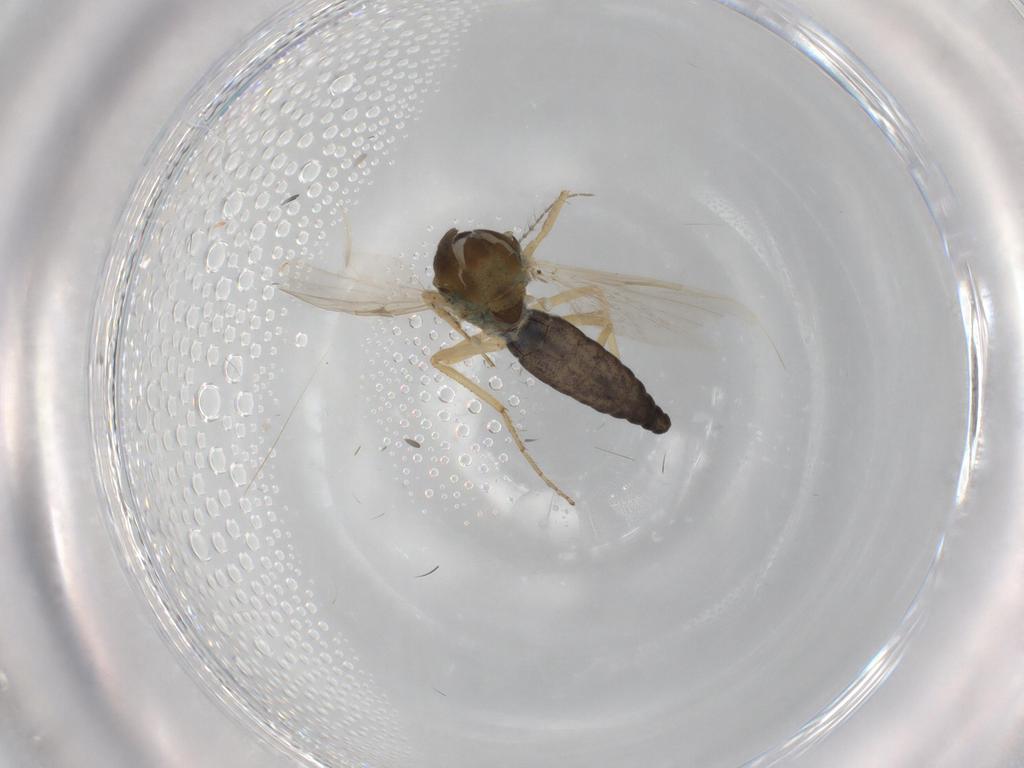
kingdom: Animalia
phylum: Arthropoda
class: Insecta
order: Diptera
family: Ceratopogonidae
